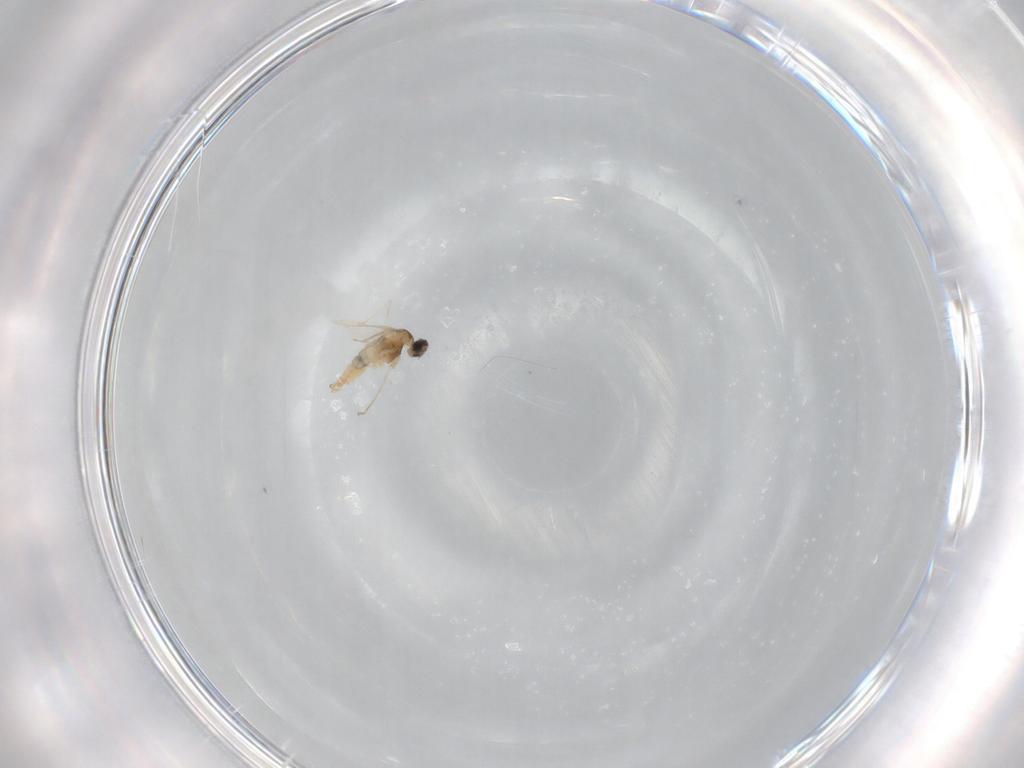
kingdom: Animalia
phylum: Arthropoda
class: Insecta
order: Diptera
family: Cecidomyiidae
